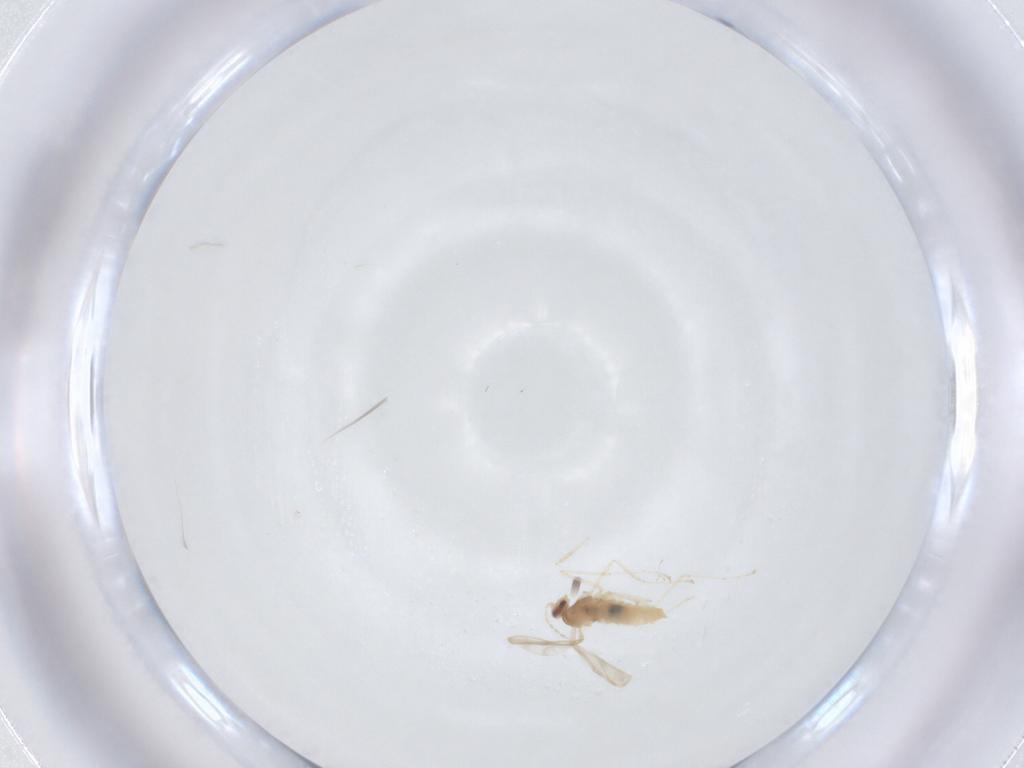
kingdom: Animalia
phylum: Arthropoda
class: Insecta
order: Diptera
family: Cecidomyiidae
